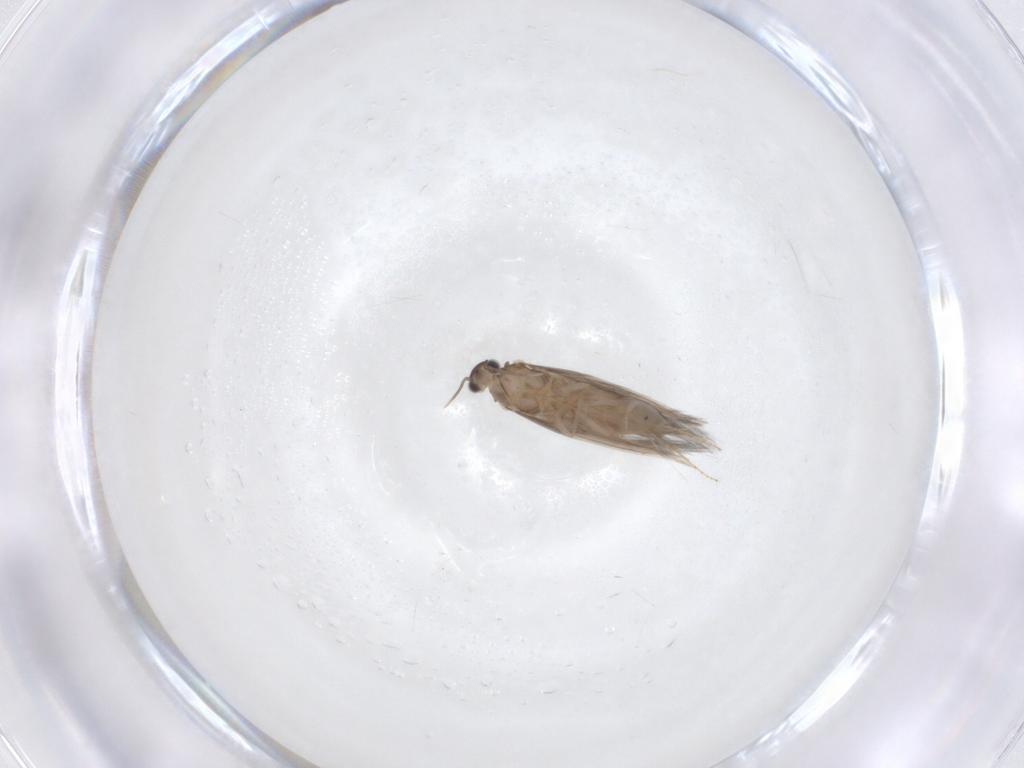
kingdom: Animalia
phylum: Arthropoda
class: Insecta
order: Trichoptera
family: Hydroptilidae
